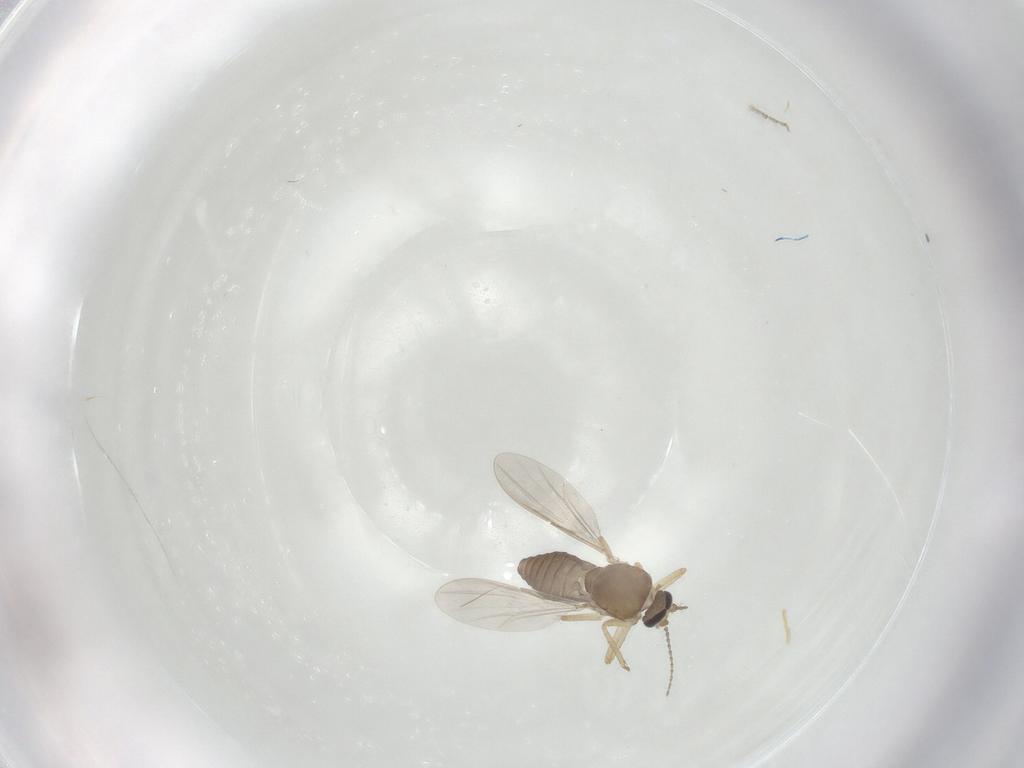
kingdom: Animalia
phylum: Arthropoda
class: Insecta
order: Diptera
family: Ceratopogonidae
